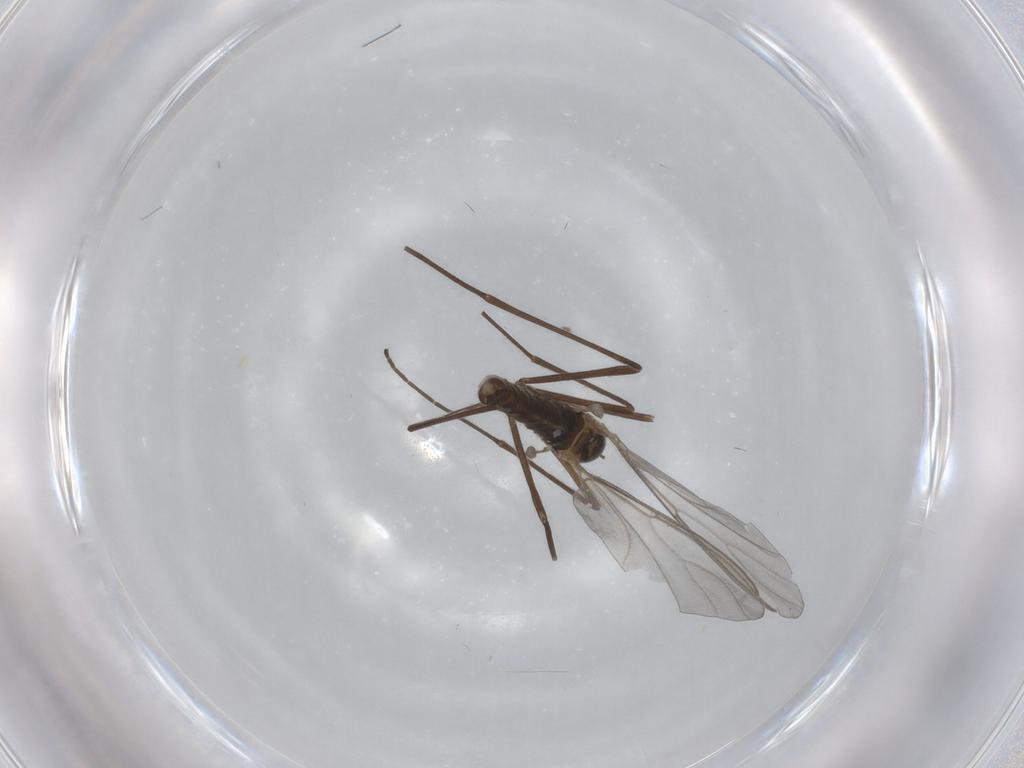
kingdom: Animalia
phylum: Arthropoda
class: Insecta
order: Diptera
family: Cecidomyiidae
